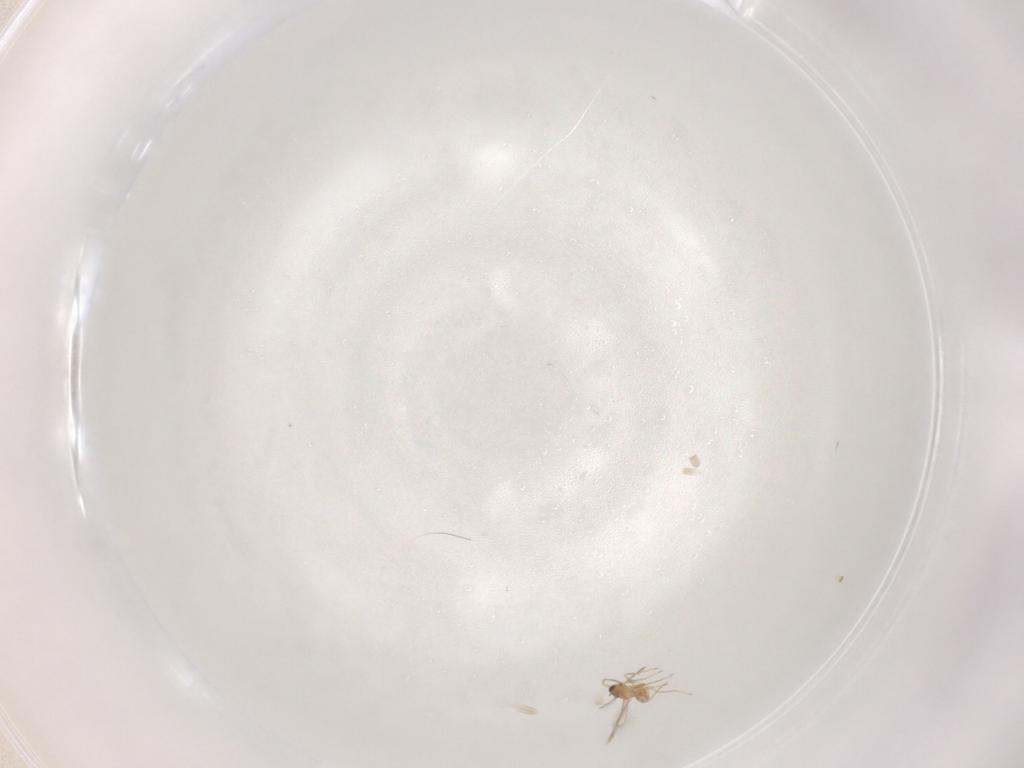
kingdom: Animalia
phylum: Arthropoda
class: Insecta
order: Hymenoptera
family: Mymaridae
